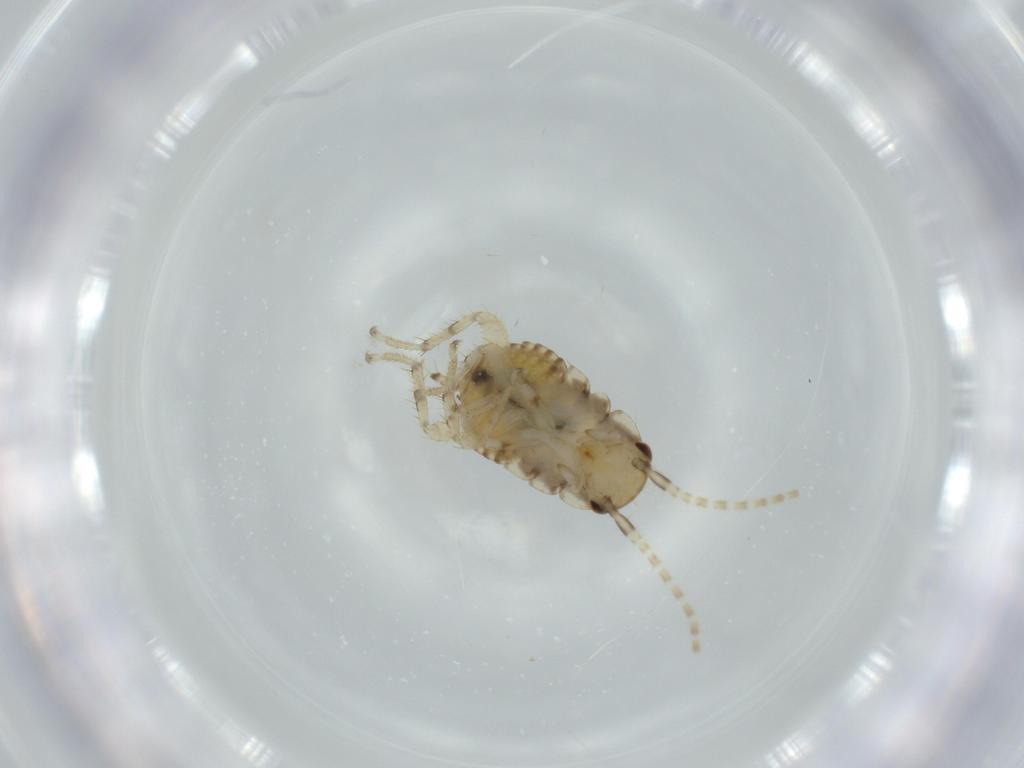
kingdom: Animalia
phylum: Arthropoda
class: Insecta
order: Blattodea
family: Ectobiidae
